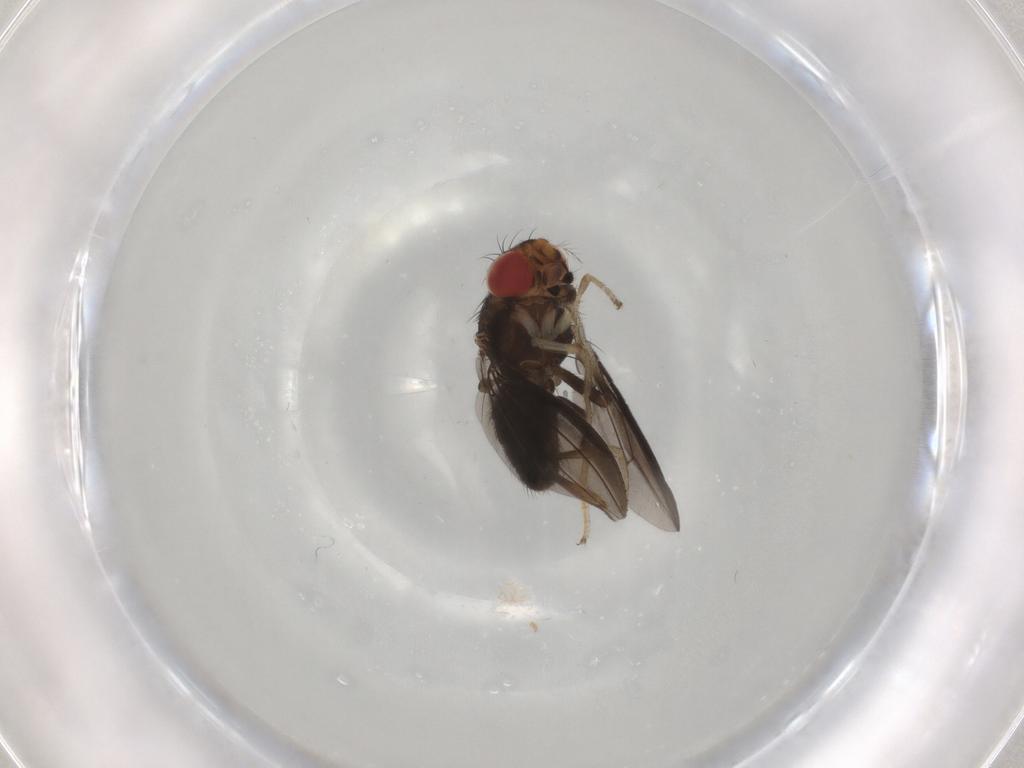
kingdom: Animalia
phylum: Arthropoda
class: Insecta
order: Diptera
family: Drosophilidae
